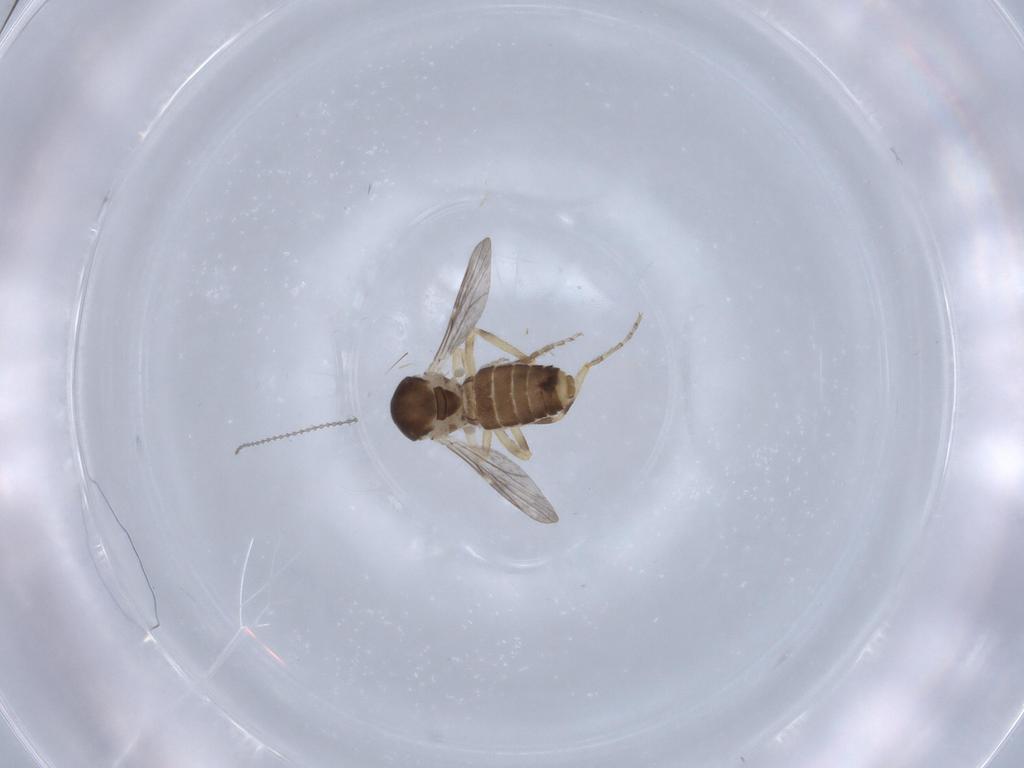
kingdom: Animalia
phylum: Arthropoda
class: Insecta
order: Diptera
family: Ceratopogonidae
